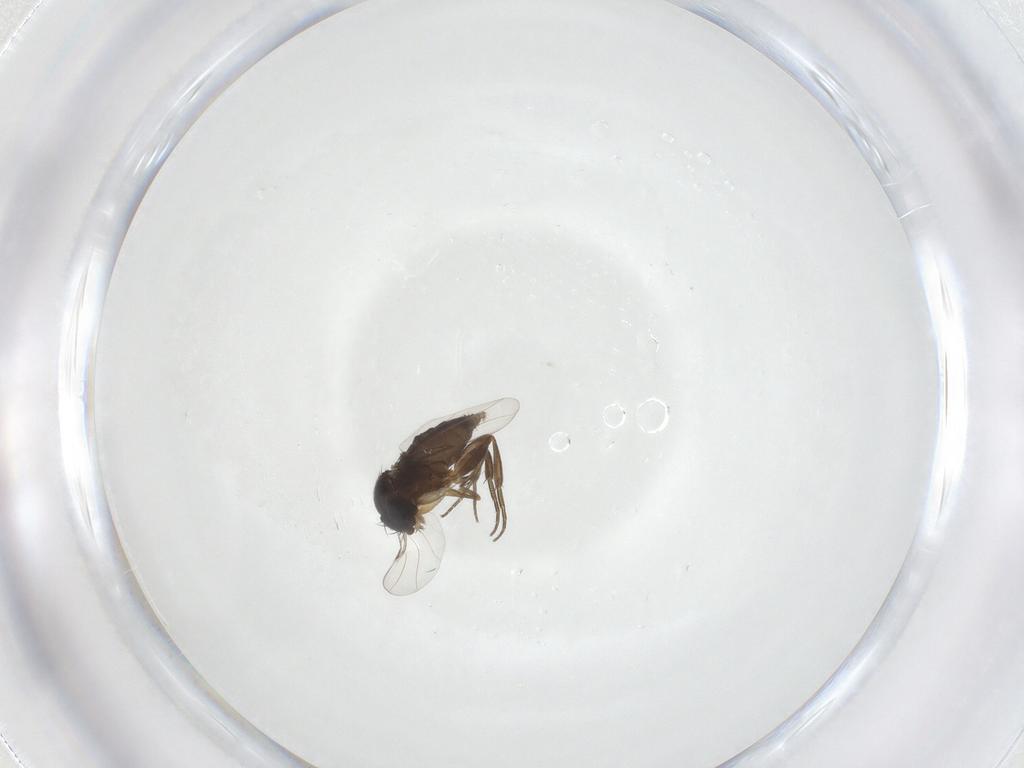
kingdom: Animalia
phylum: Arthropoda
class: Insecta
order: Diptera
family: Phoridae
